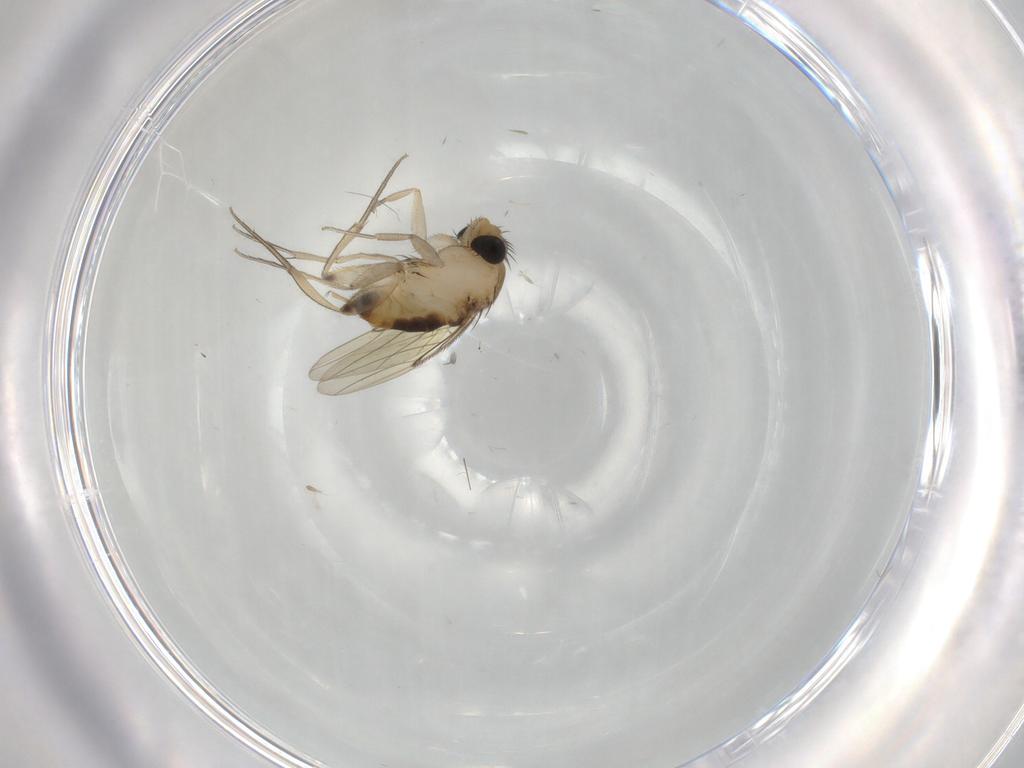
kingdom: Animalia
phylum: Arthropoda
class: Insecta
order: Diptera
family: Phoridae
